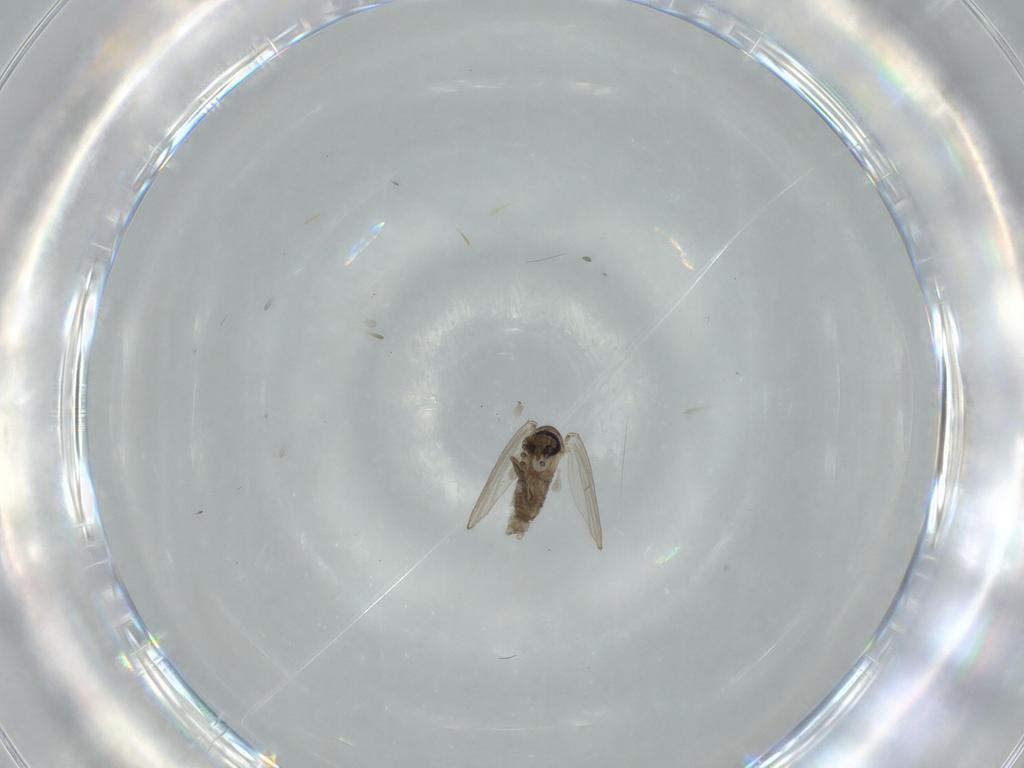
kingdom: Animalia
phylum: Arthropoda
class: Insecta
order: Diptera
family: Psychodidae
